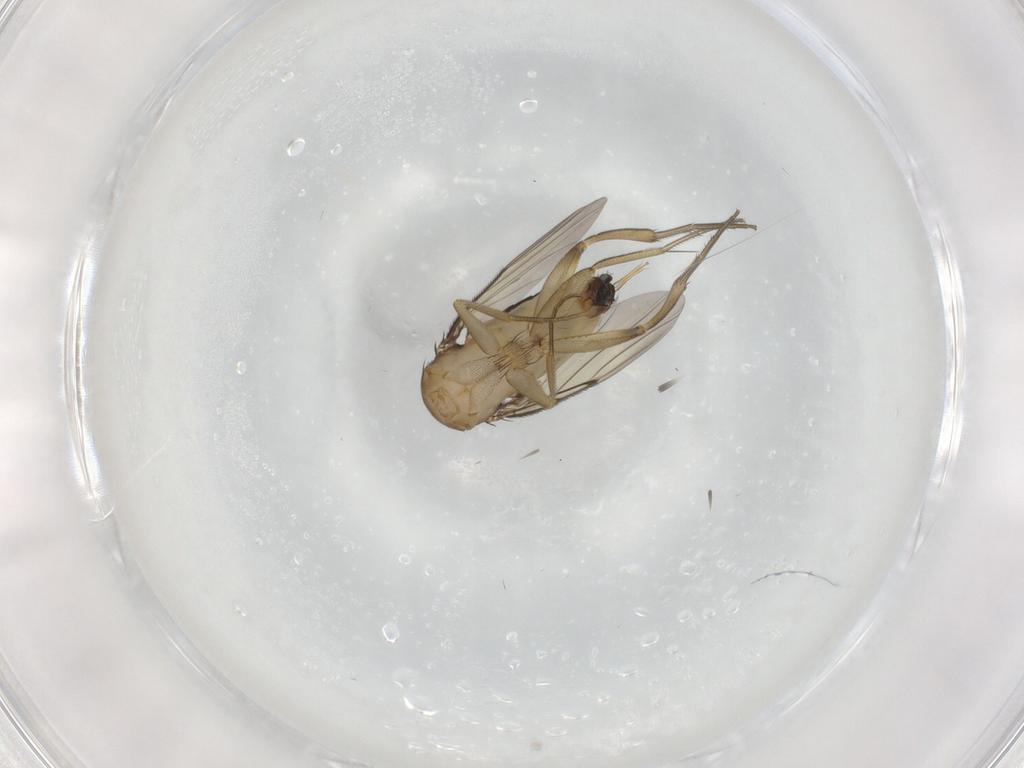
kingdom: Animalia
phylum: Arthropoda
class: Insecta
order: Diptera
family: Phoridae
